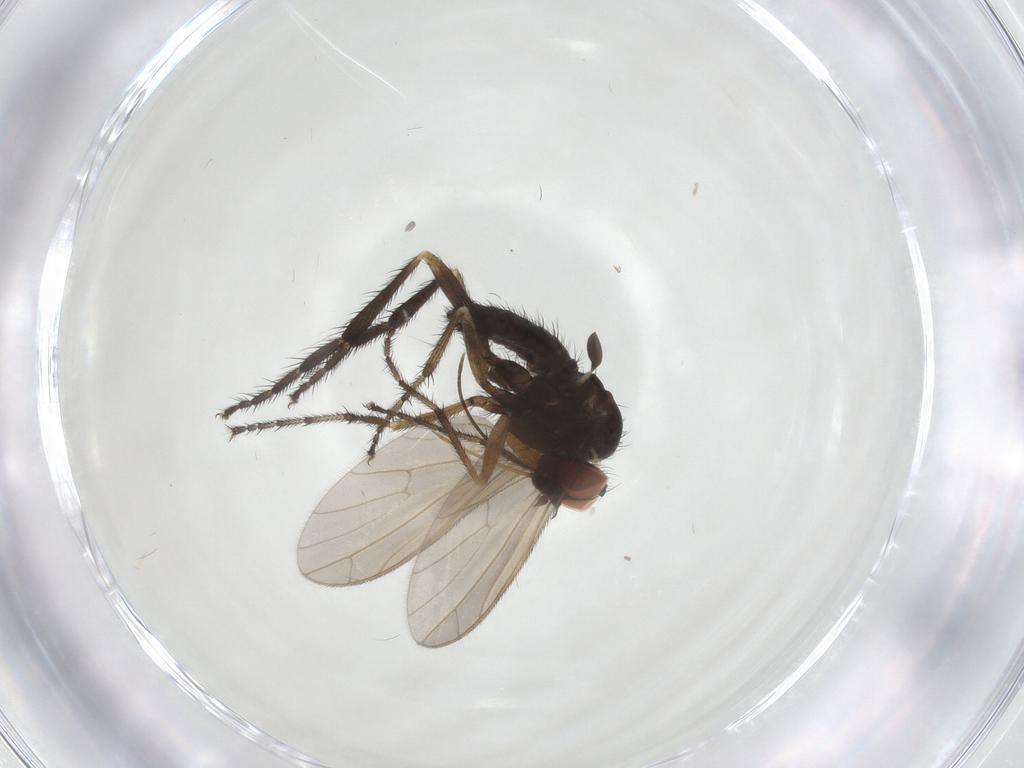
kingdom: Animalia
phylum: Arthropoda
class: Insecta
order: Diptera
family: Empididae
